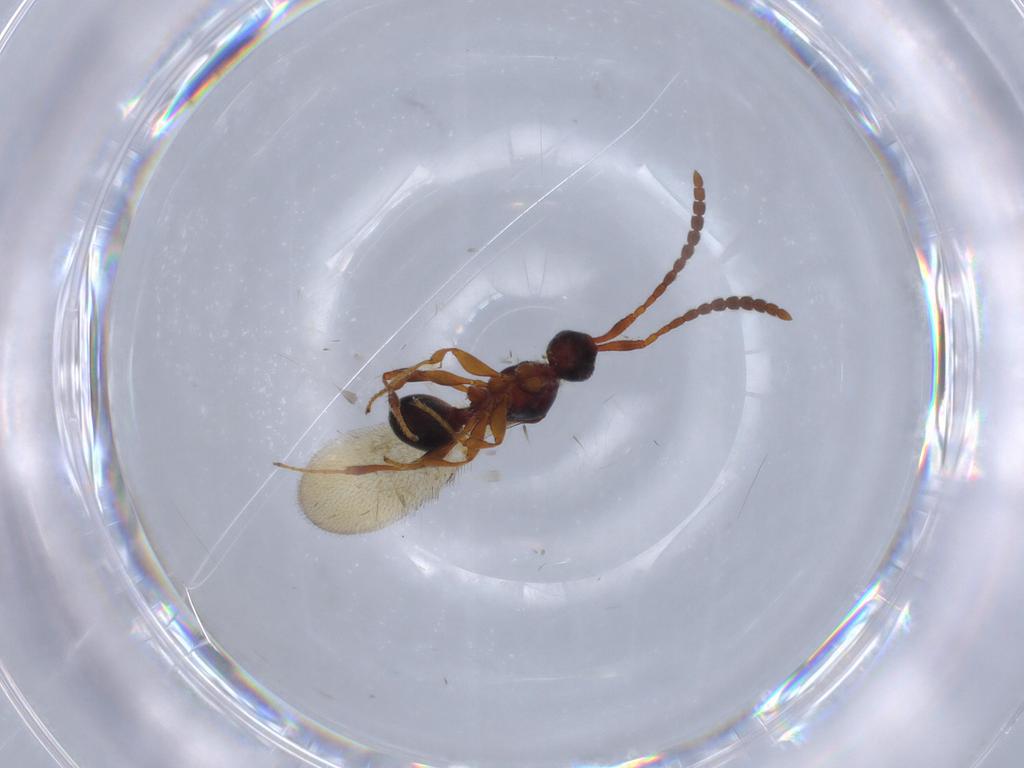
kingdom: Animalia
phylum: Arthropoda
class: Insecta
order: Hymenoptera
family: Diapriidae
